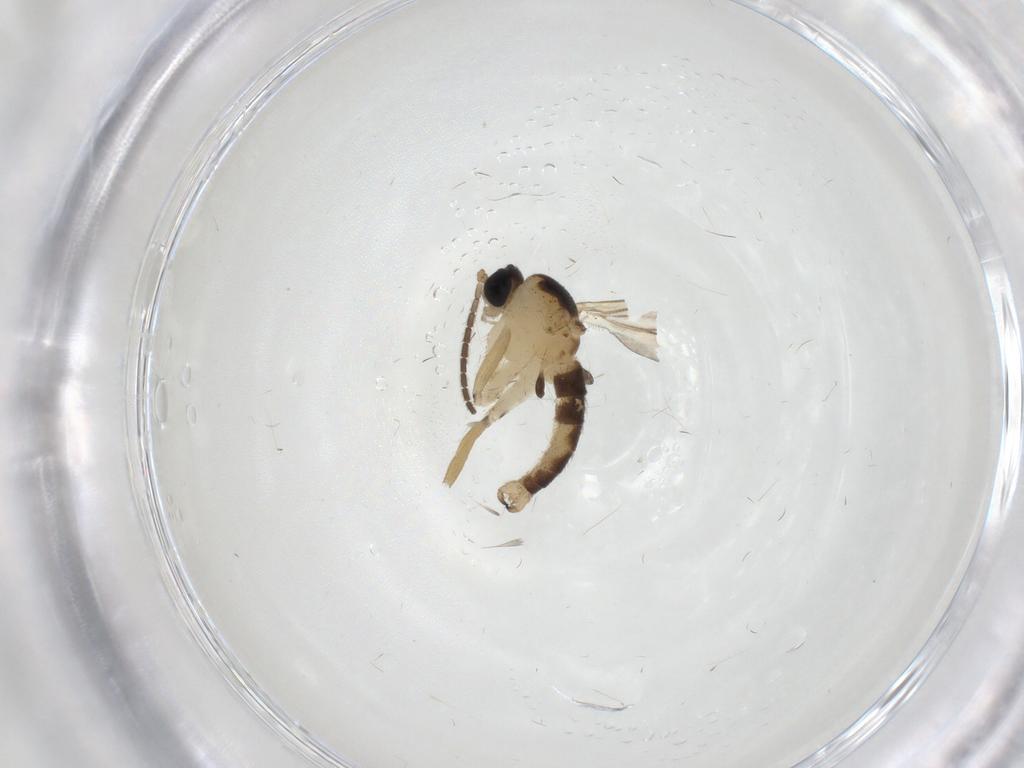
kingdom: Animalia
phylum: Arthropoda
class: Insecta
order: Diptera
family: Sciaridae
